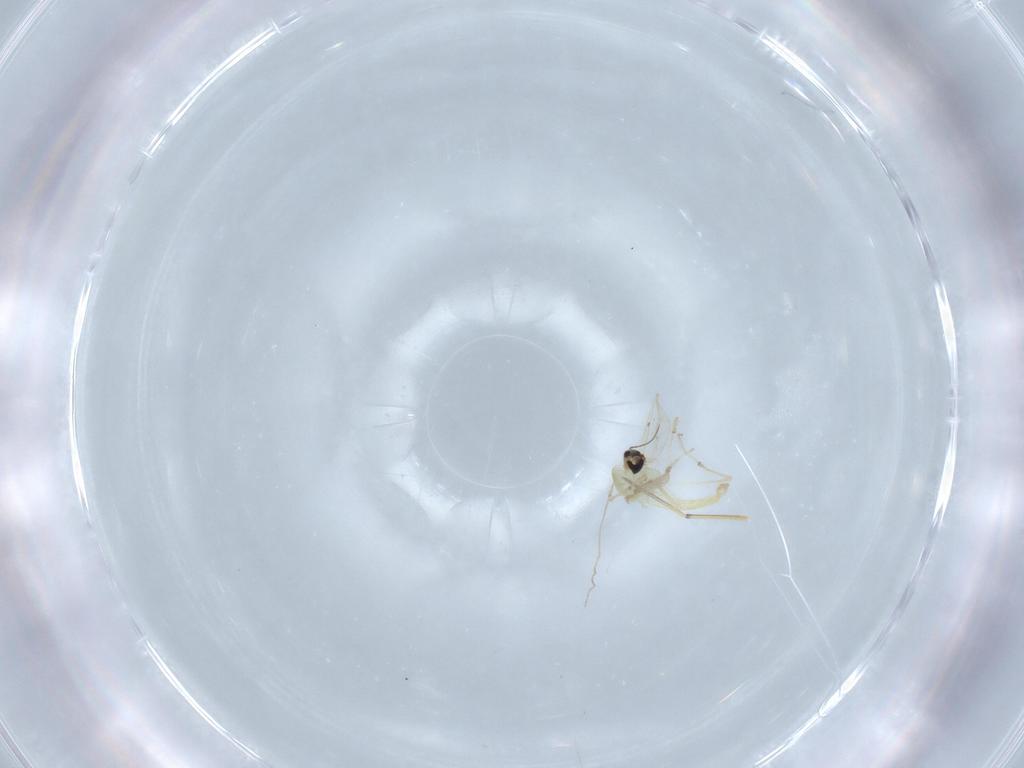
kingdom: Animalia
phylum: Arthropoda
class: Insecta
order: Diptera
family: Chironomidae
